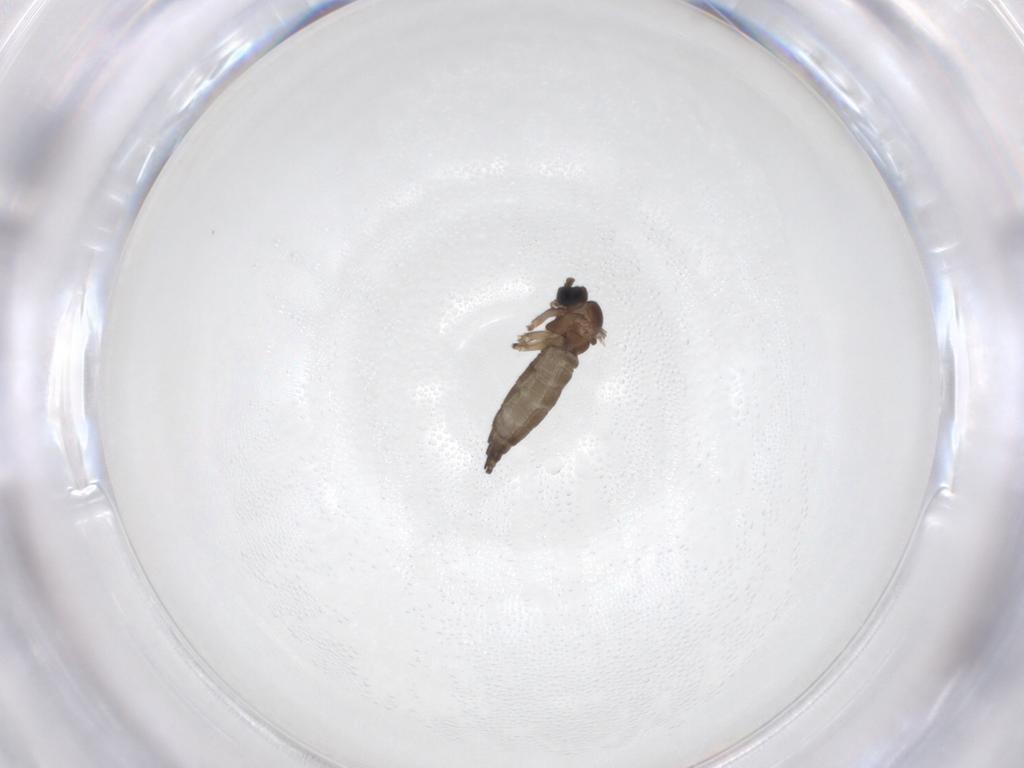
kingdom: Animalia
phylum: Arthropoda
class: Insecta
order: Diptera
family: Sciaridae
